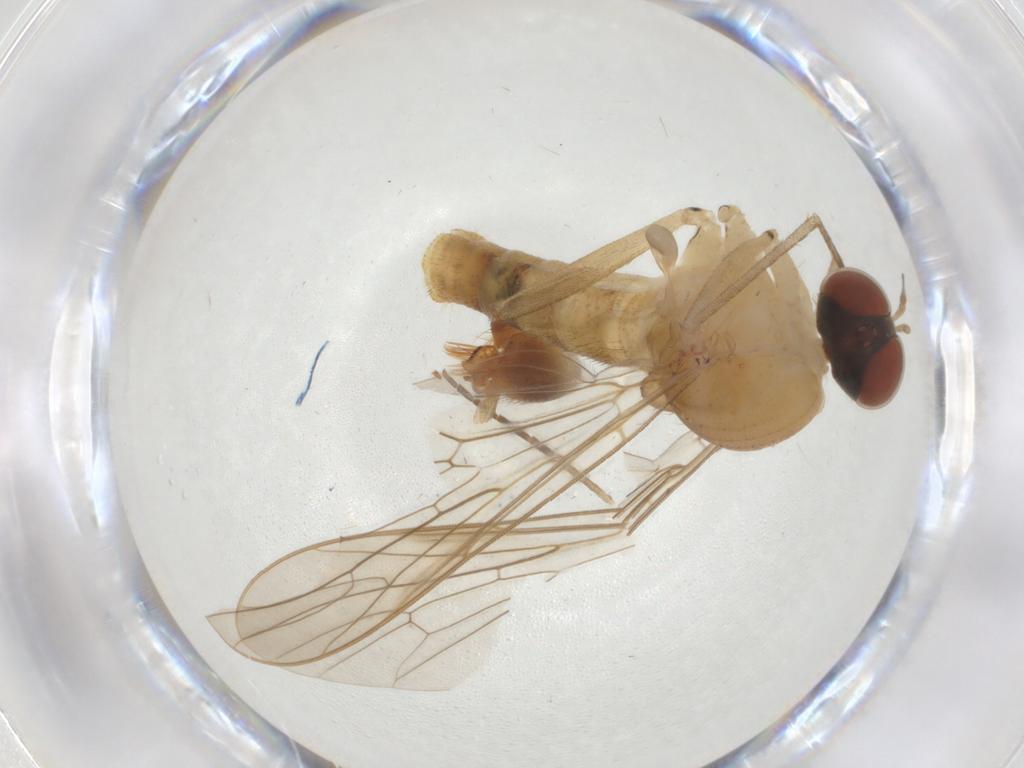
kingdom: Animalia
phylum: Arthropoda
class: Insecta
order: Diptera
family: Apsilocephalidae
